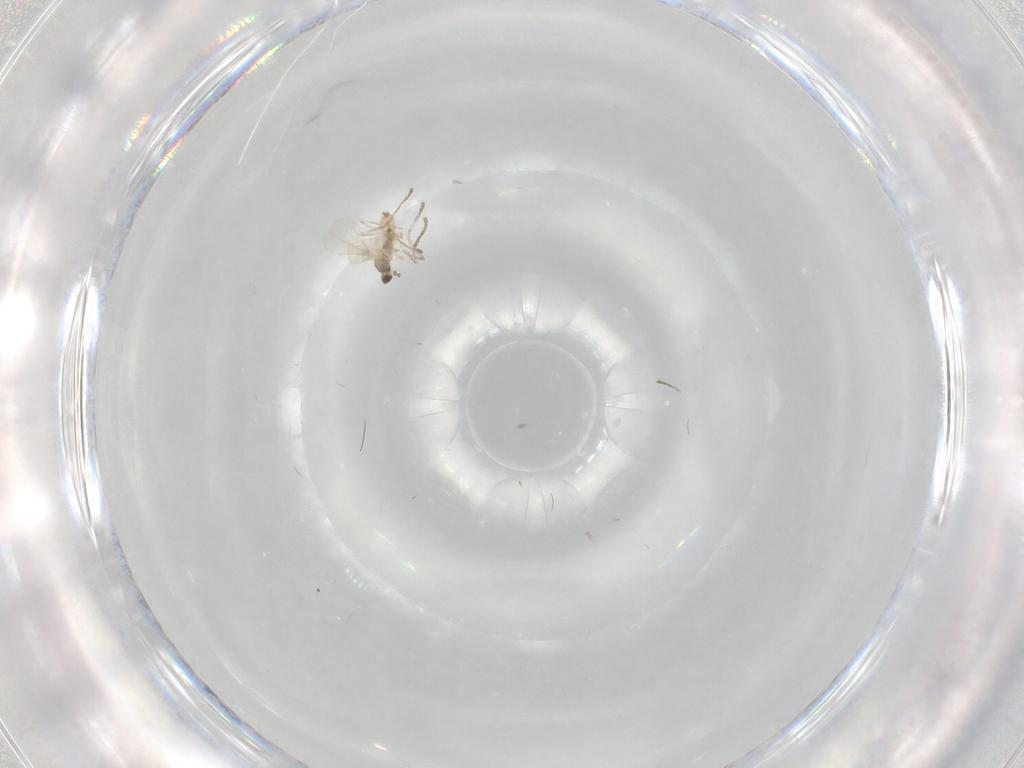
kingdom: Animalia
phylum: Arthropoda
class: Insecta
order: Diptera
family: Cecidomyiidae
